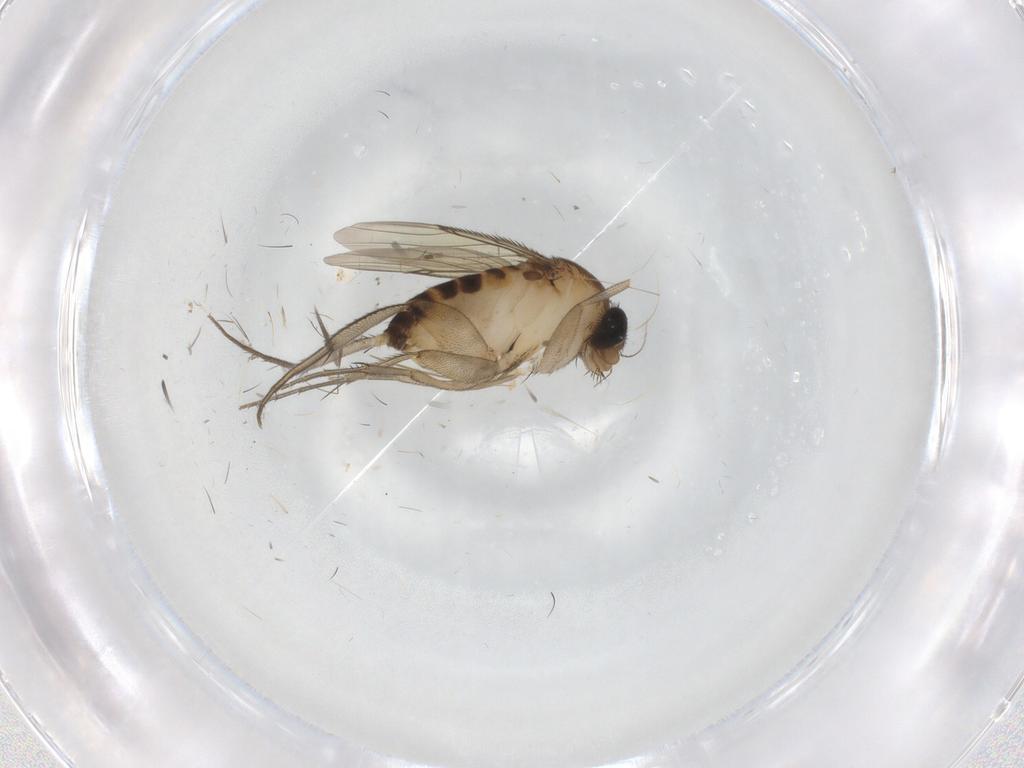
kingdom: Animalia
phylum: Arthropoda
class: Insecta
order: Diptera
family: Phoridae
